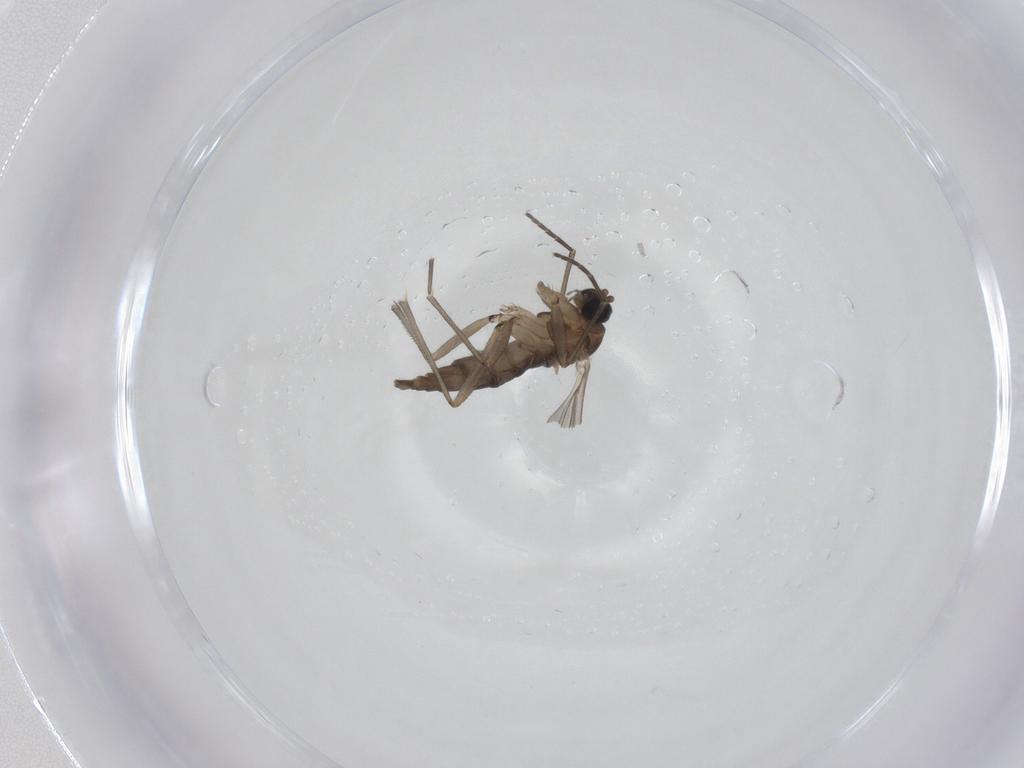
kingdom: Animalia
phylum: Arthropoda
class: Insecta
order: Diptera
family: Sciaridae
